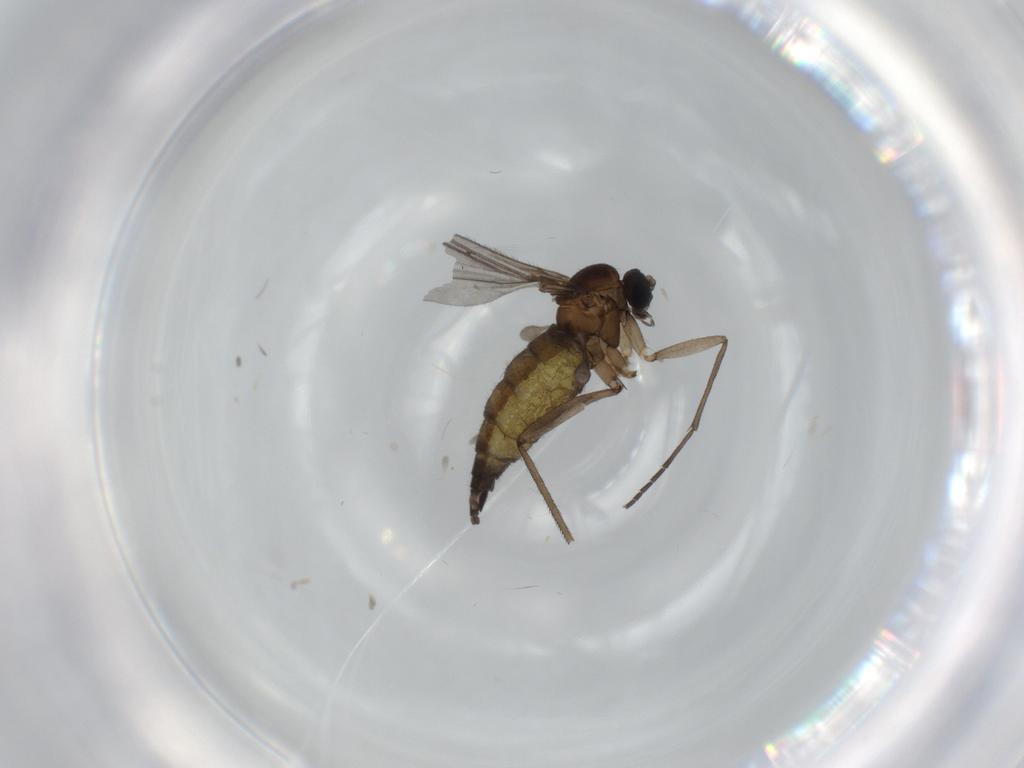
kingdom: Animalia
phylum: Arthropoda
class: Insecta
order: Diptera
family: Sciaridae
